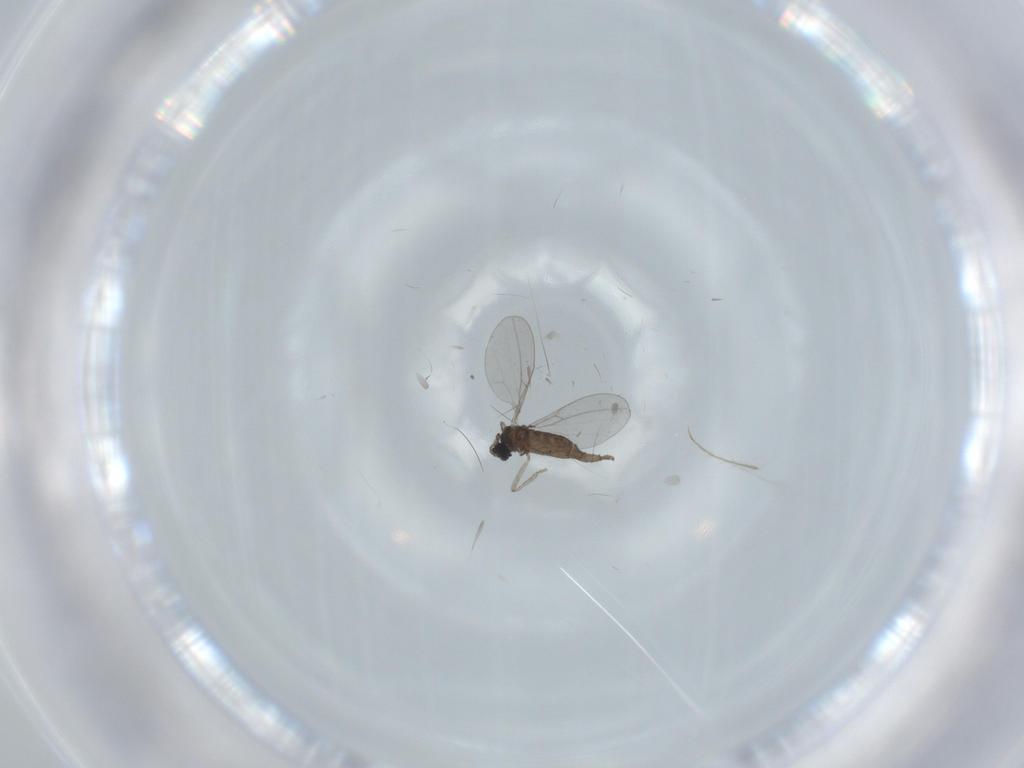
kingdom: Animalia
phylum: Arthropoda
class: Insecta
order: Diptera
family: Cecidomyiidae
